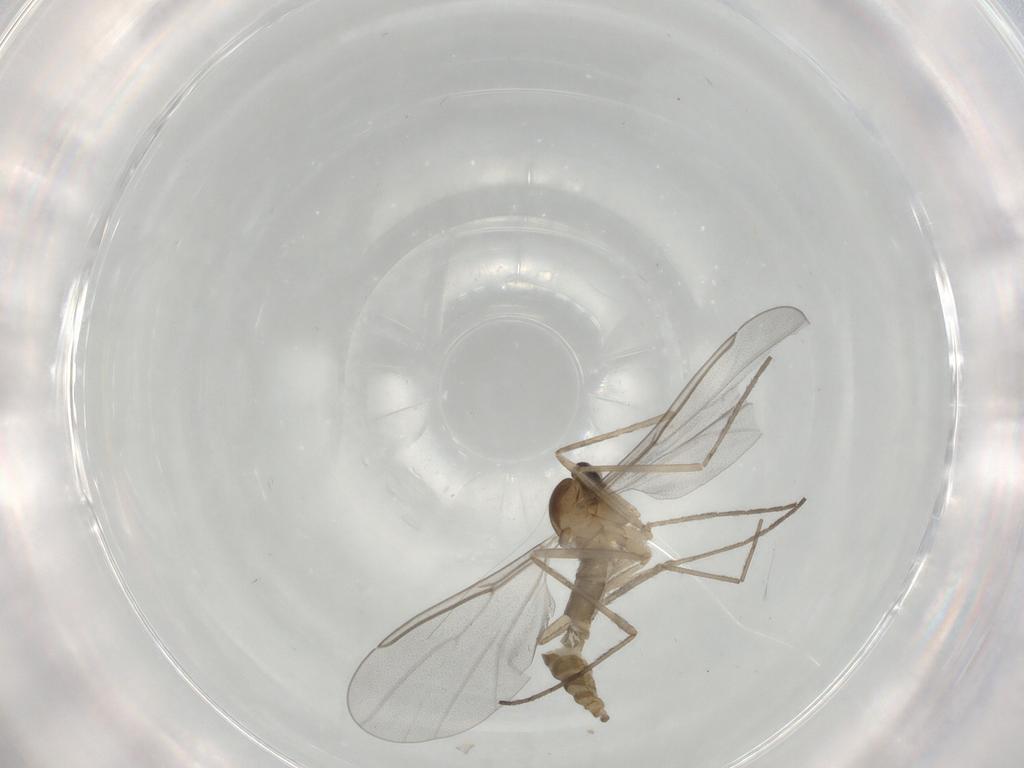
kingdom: Animalia
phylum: Arthropoda
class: Insecta
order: Diptera
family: Cecidomyiidae
